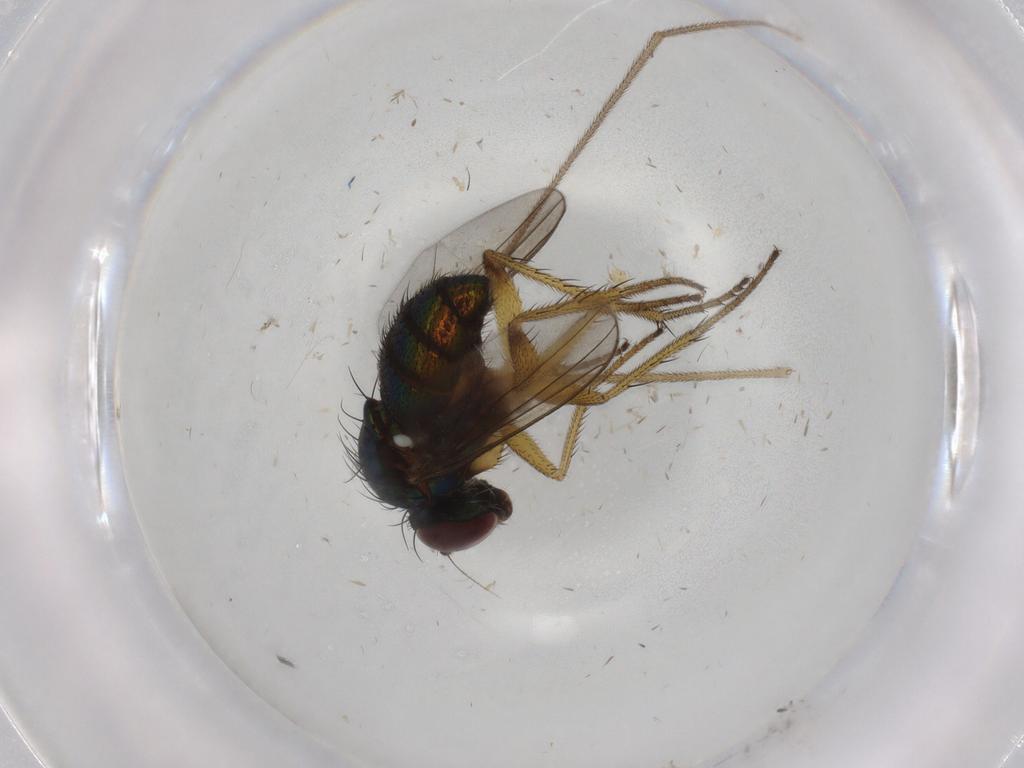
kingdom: Animalia
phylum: Arthropoda
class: Insecta
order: Diptera
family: Dolichopodidae
